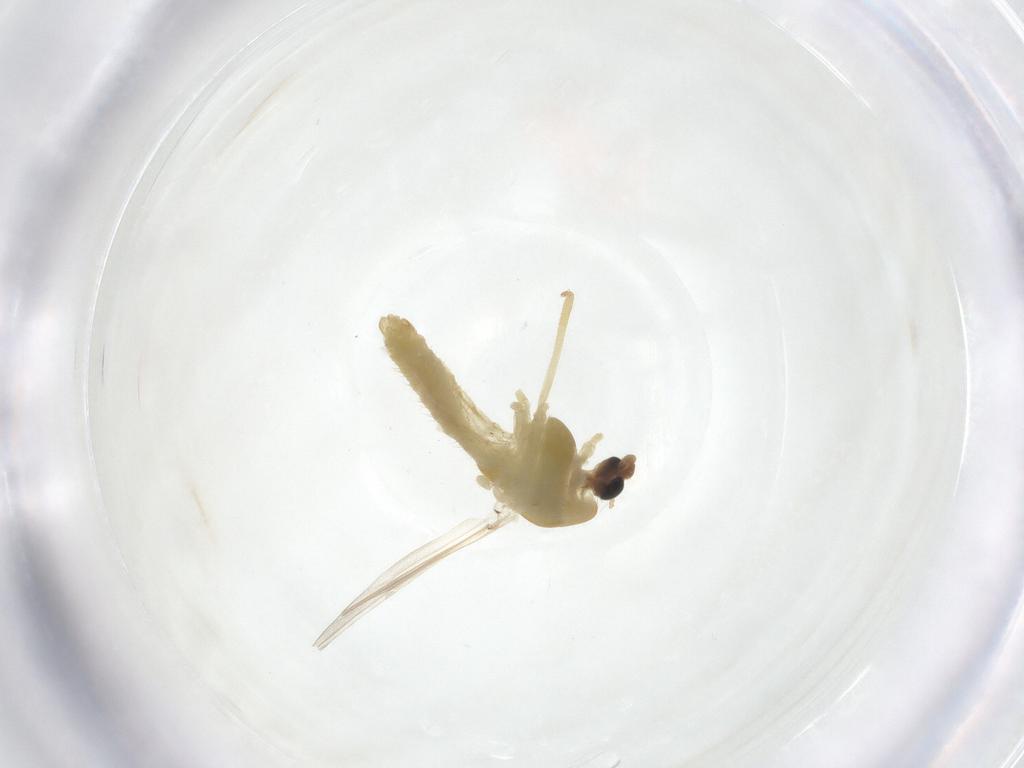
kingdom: Animalia
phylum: Arthropoda
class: Insecta
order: Diptera
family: Chironomidae
